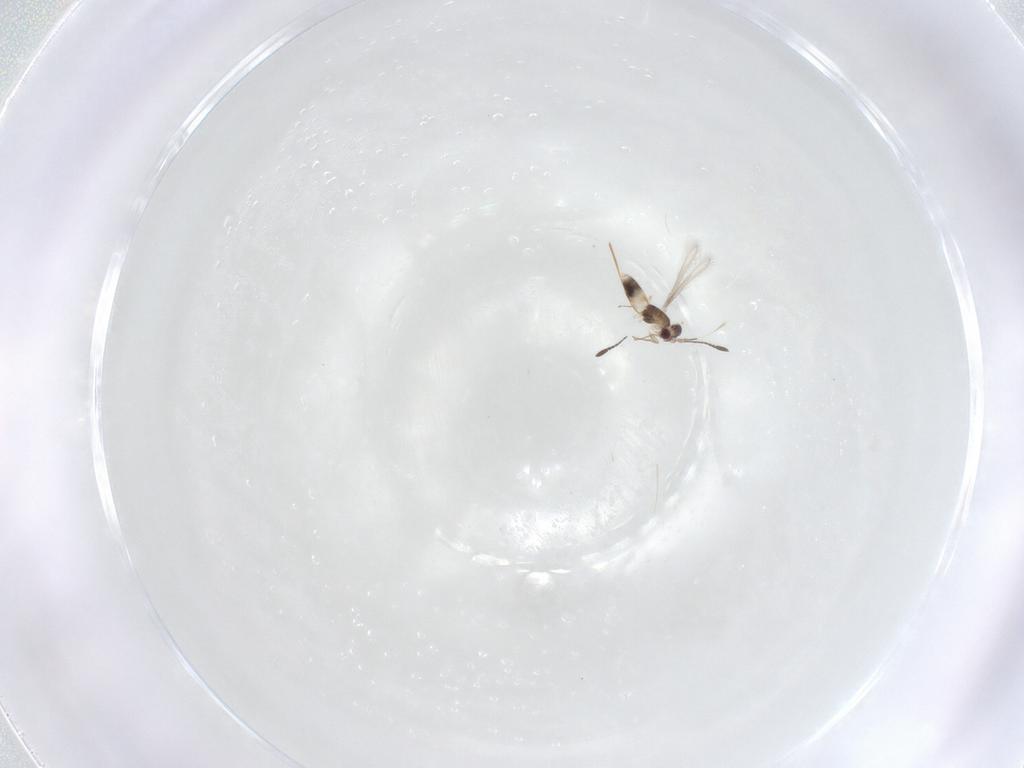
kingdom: Animalia
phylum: Arthropoda
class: Insecta
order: Hymenoptera
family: Mymaridae
